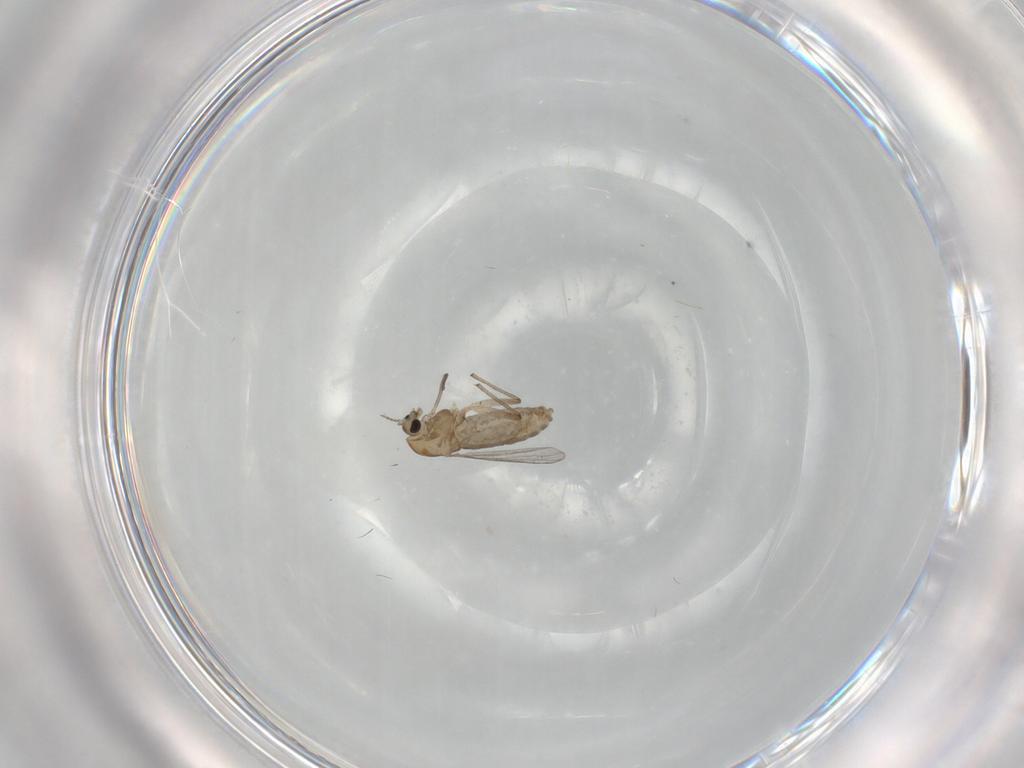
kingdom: Animalia
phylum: Arthropoda
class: Insecta
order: Diptera
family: Chironomidae
